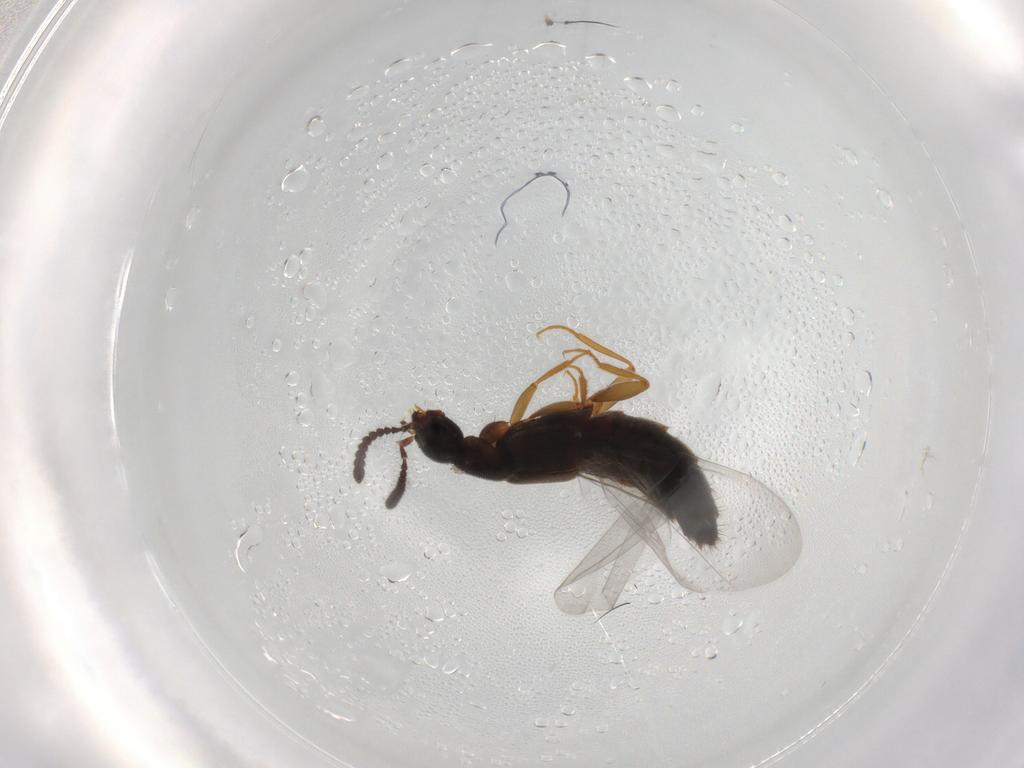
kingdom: Animalia
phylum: Arthropoda
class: Insecta
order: Coleoptera
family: Staphylinidae
